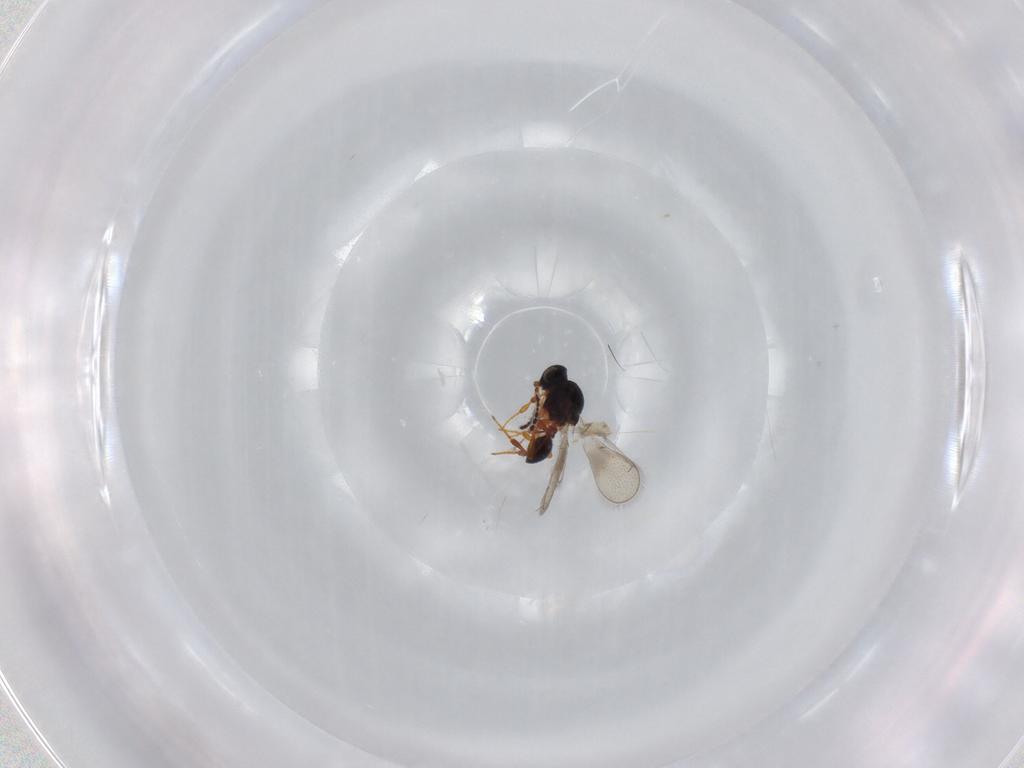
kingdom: Animalia
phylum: Arthropoda
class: Insecta
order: Hymenoptera
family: Platygastridae
